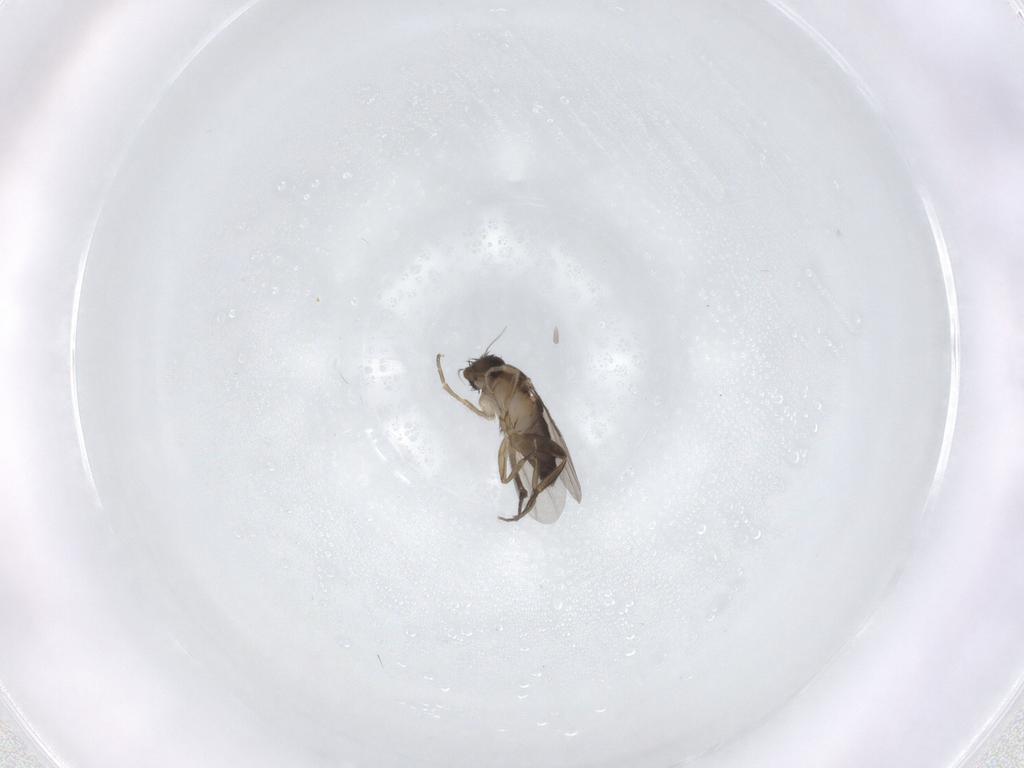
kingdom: Animalia
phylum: Arthropoda
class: Insecta
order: Diptera
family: Phoridae
